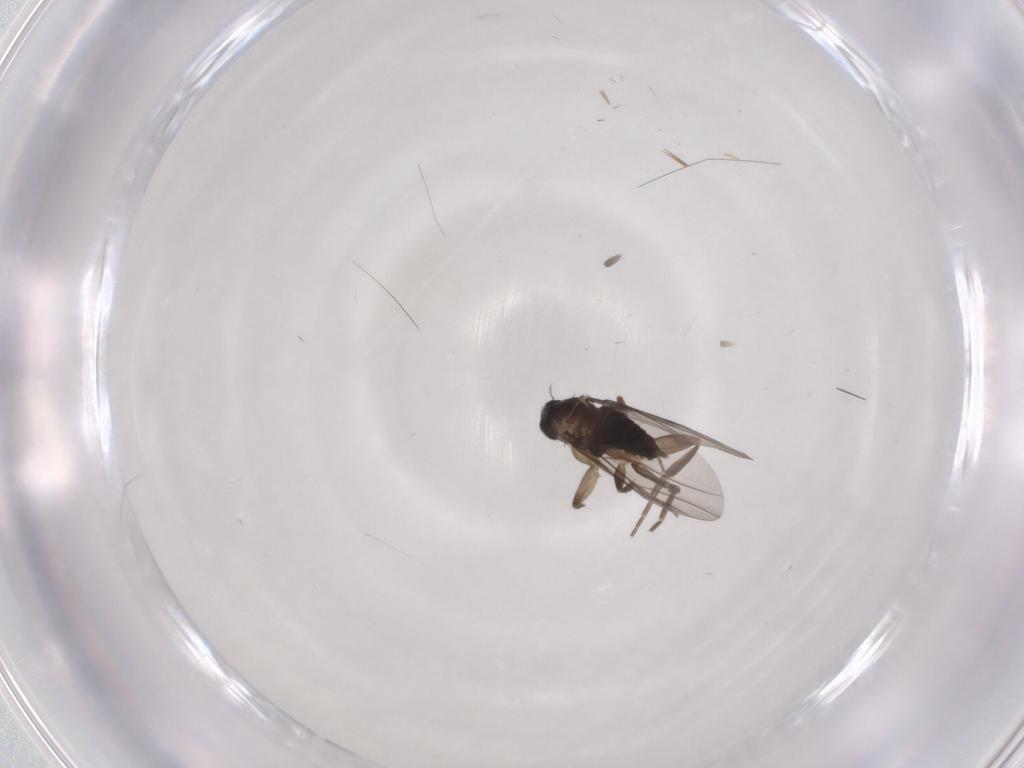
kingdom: Animalia
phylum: Arthropoda
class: Insecta
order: Diptera
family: Phoridae
